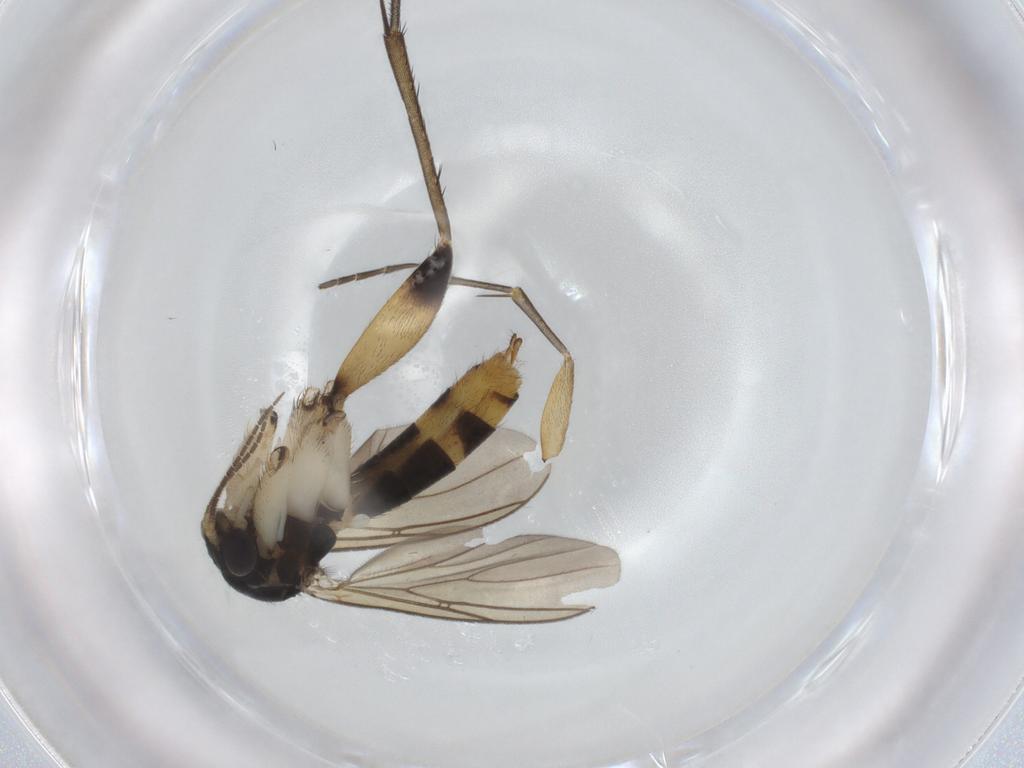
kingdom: Animalia
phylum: Arthropoda
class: Insecta
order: Diptera
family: Mycetophilidae
